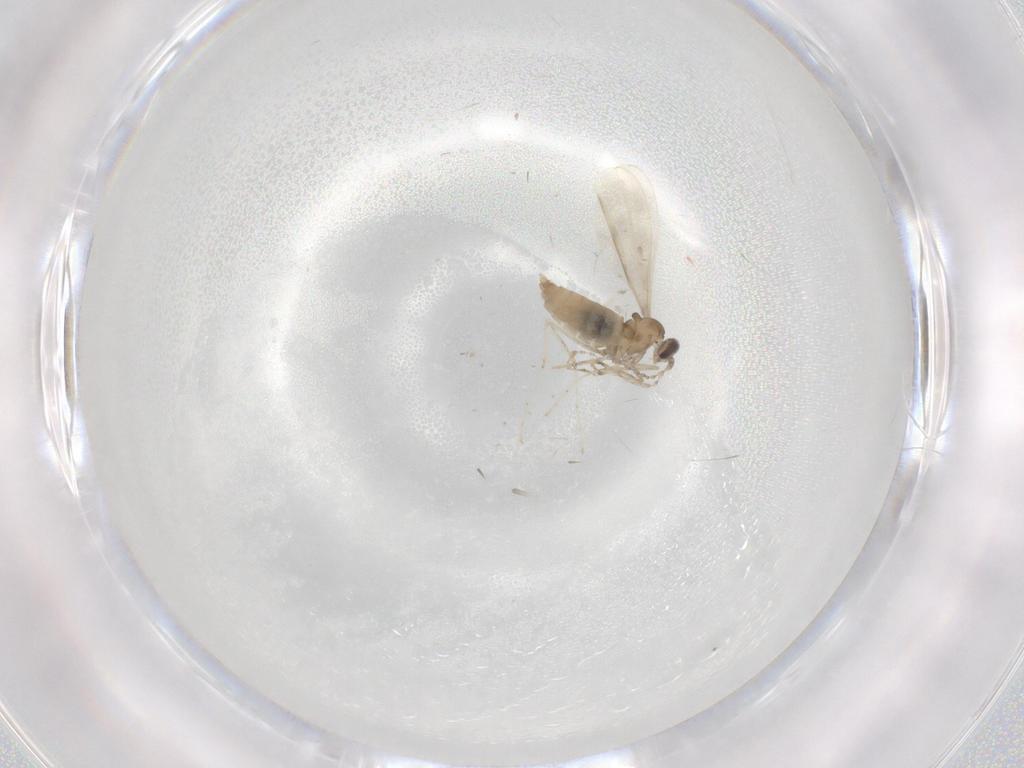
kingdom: Animalia
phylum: Arthropoda
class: Insecta
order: Diptera
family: Cecidomyiidae
